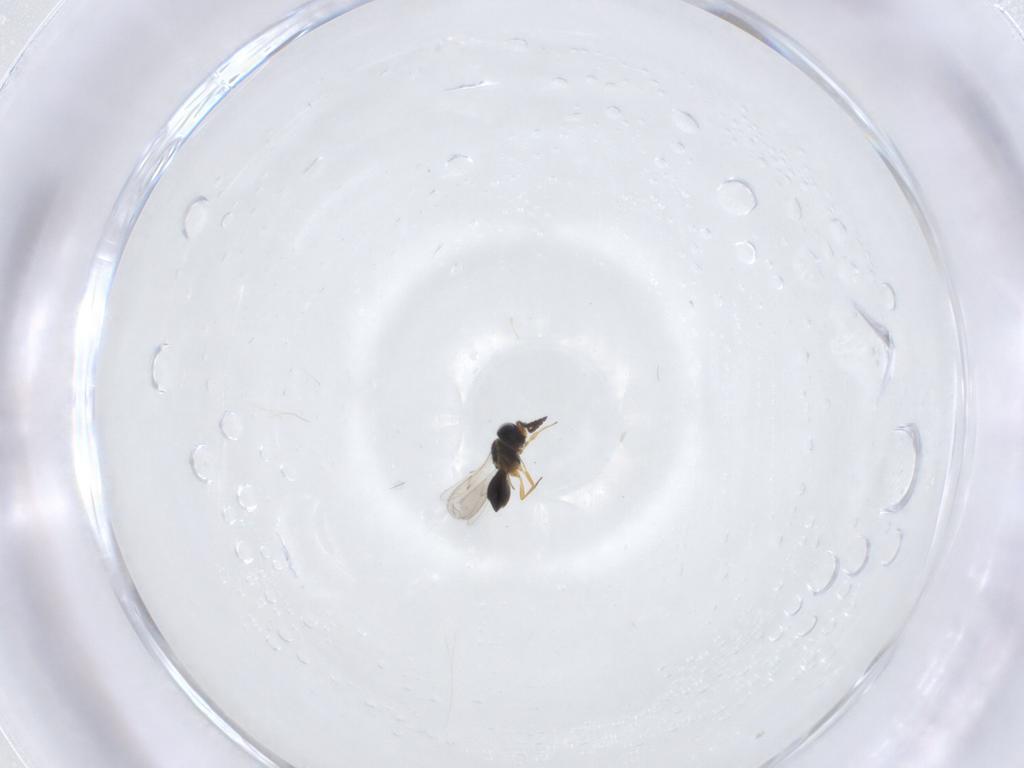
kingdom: Animalia
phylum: Arthropoda
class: Insecta
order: Hymenoptera
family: Scelionidae
